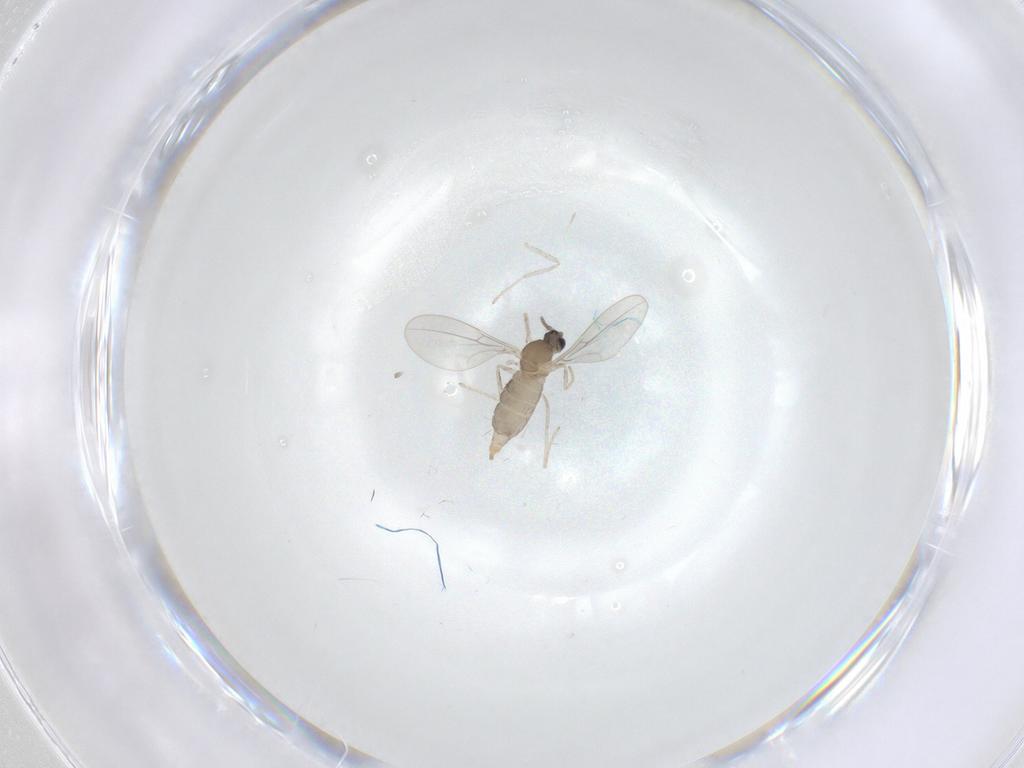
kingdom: Animalia
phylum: Arthropoda
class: Insecta
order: Diptera
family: Cecidomyiidae
